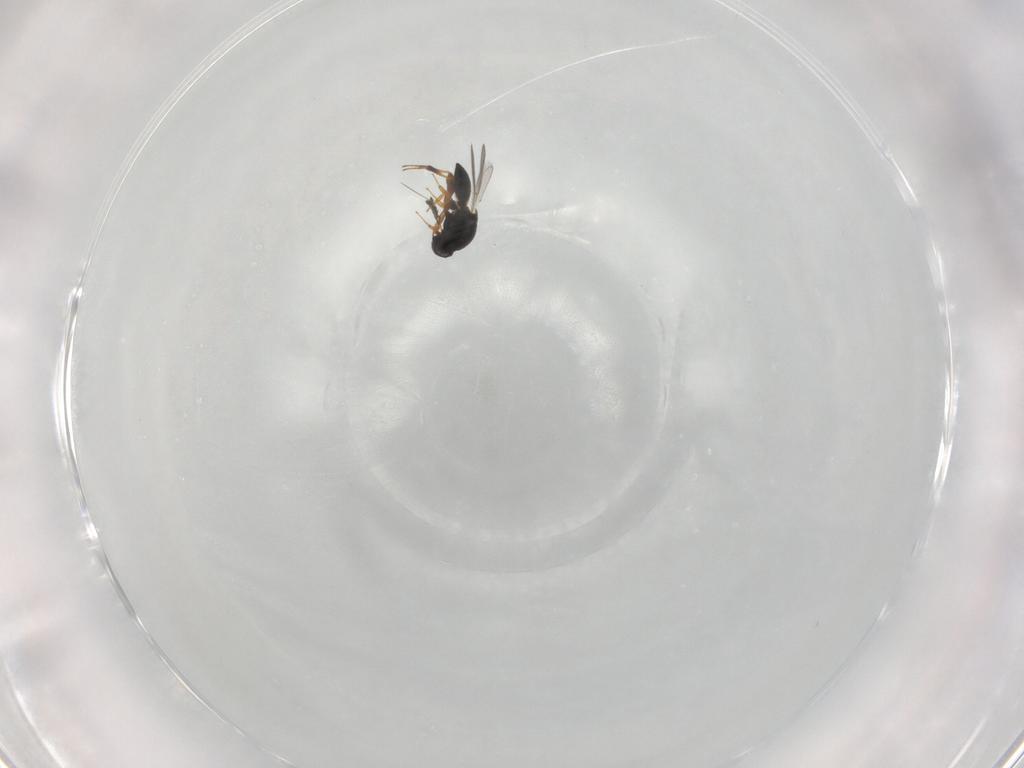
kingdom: Animalia
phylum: Arthropoda
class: Insecta
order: Hymenoptera
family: Platygastridae
